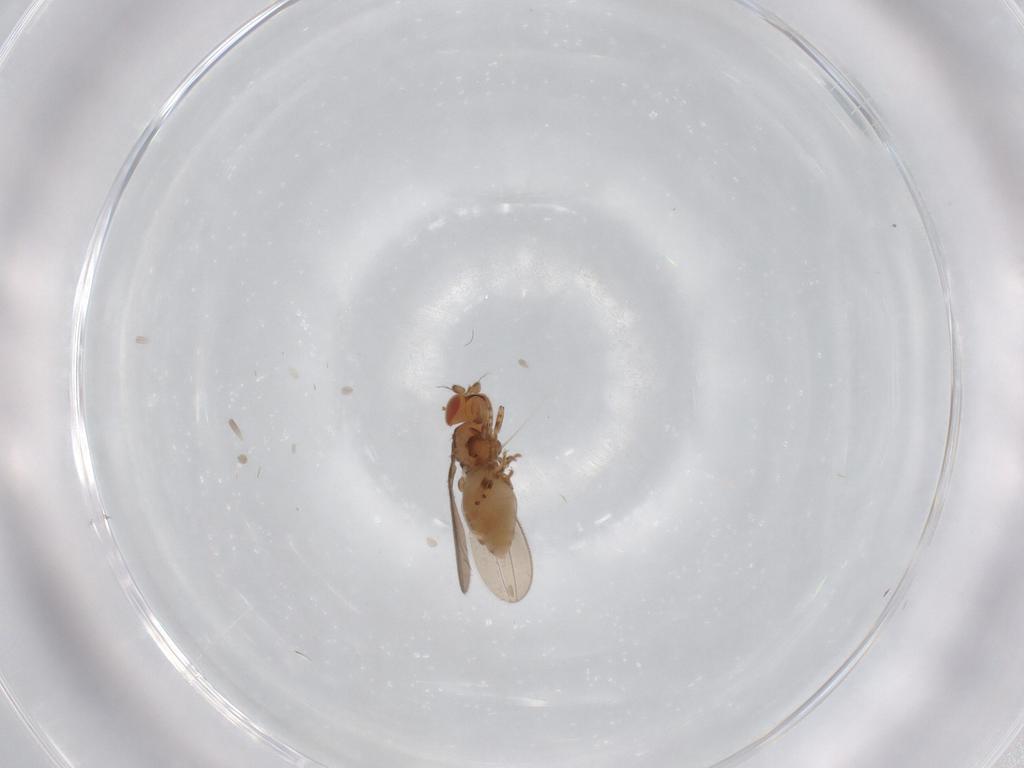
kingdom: Animalia
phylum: Arthropoda
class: Insecta
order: Diptera
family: Asteiidae
